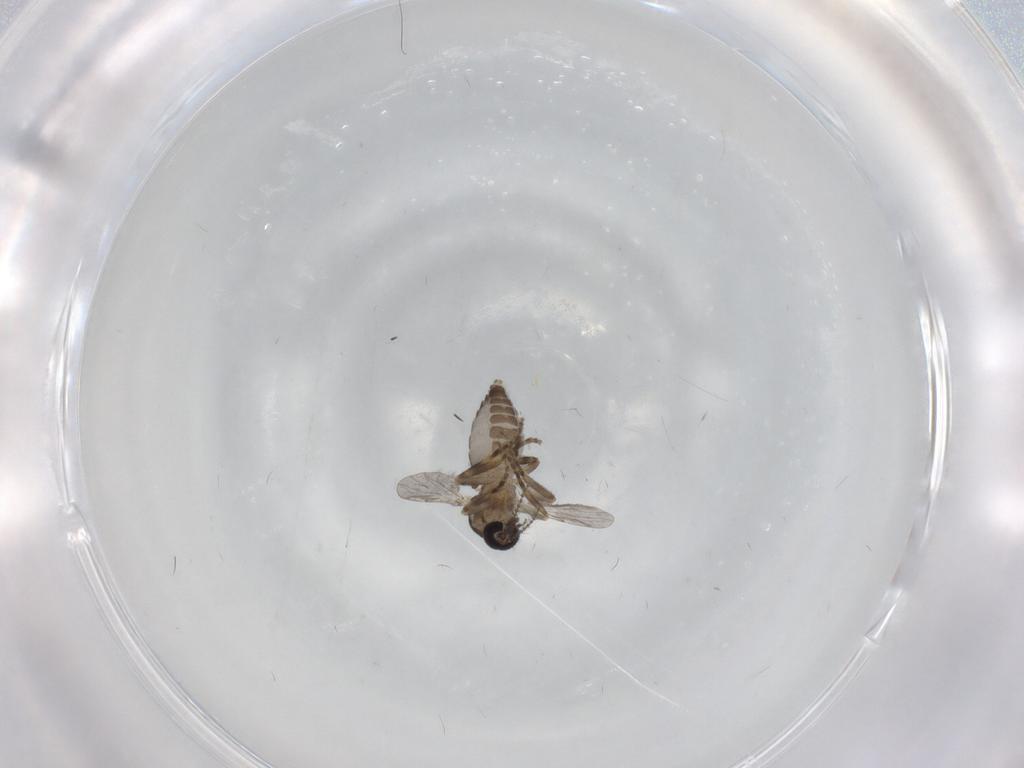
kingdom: Animalia
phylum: Arthropoda
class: Insecta
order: Diptera
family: Ceratopogonidae
